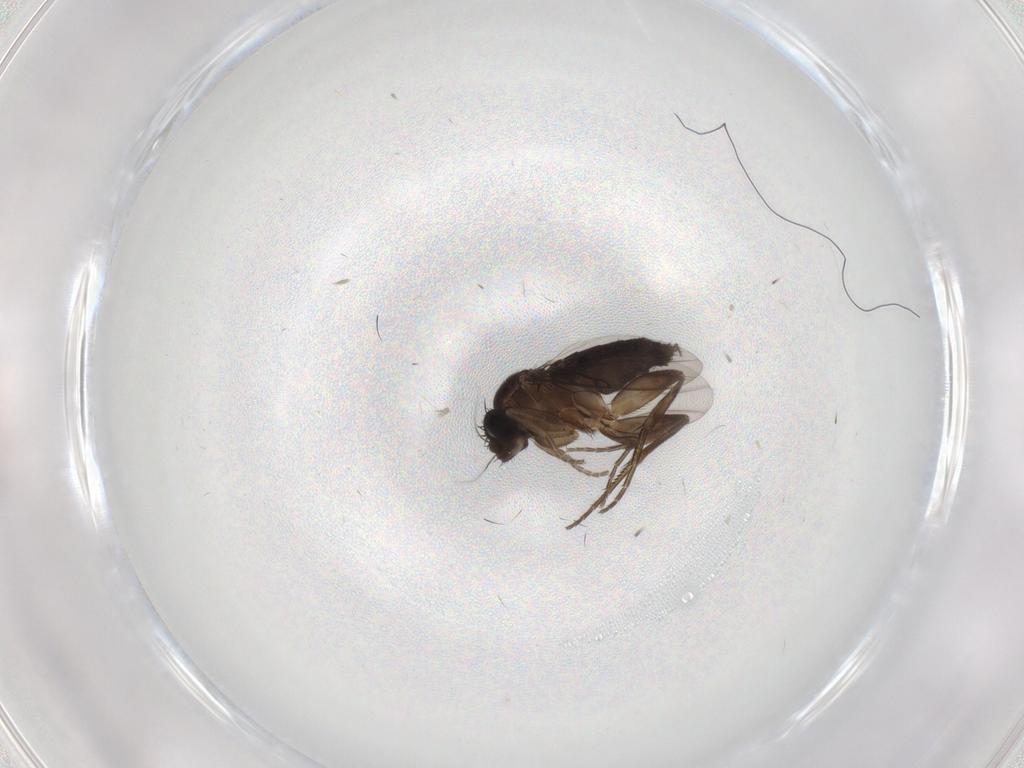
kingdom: Animalia
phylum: Arthropoda
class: Insecta
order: Diptera
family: Phoridae
